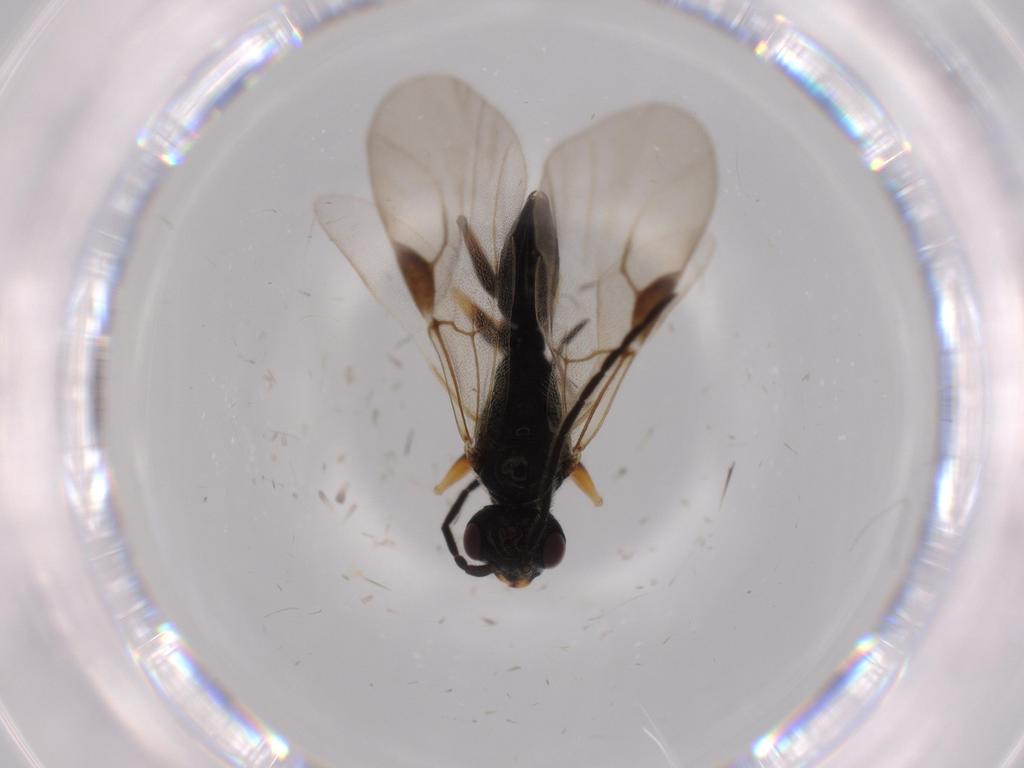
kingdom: Animalia
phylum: Arthropoda
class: Insecta
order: Hymenoptera
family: Dryinidae
